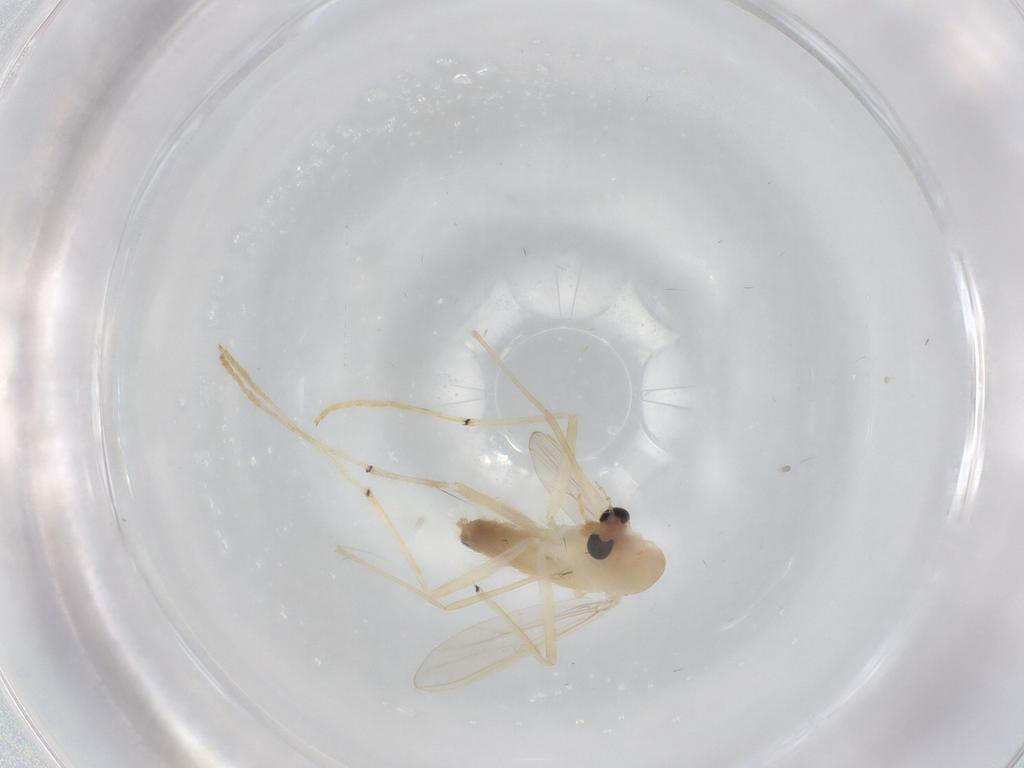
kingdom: Animalia
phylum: Arthropoda
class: Insecta
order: Diptera
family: Chironomidae
